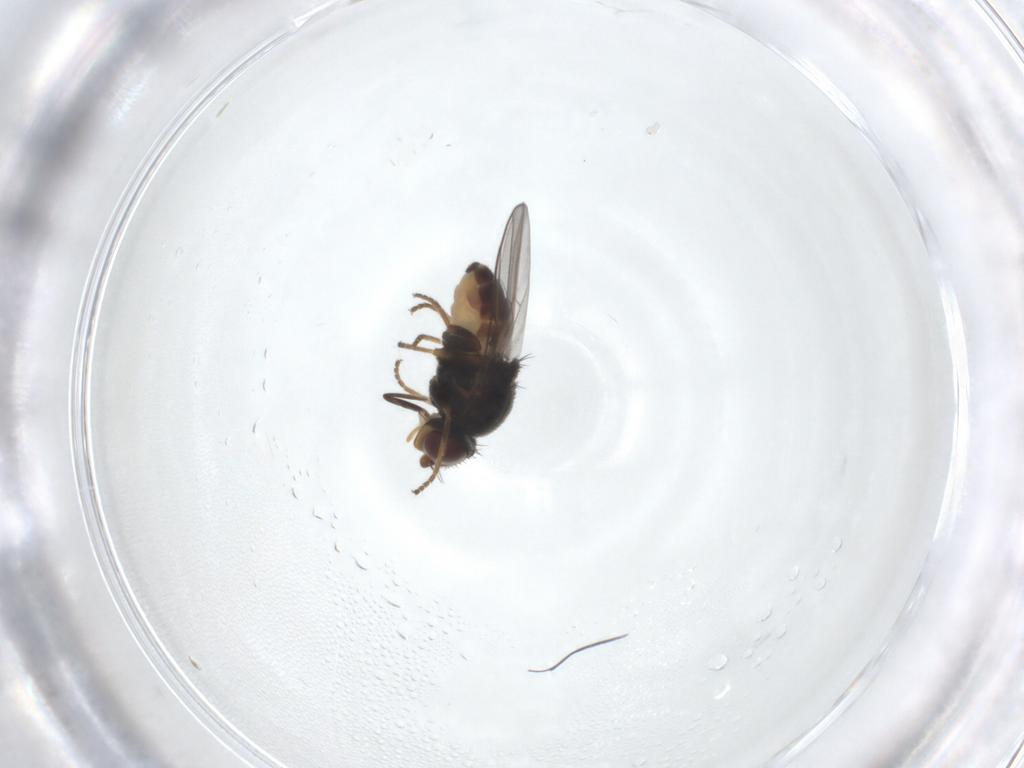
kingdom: Animalia
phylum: Arthropoda
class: Insecta
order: Diptera
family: Chloropidae
